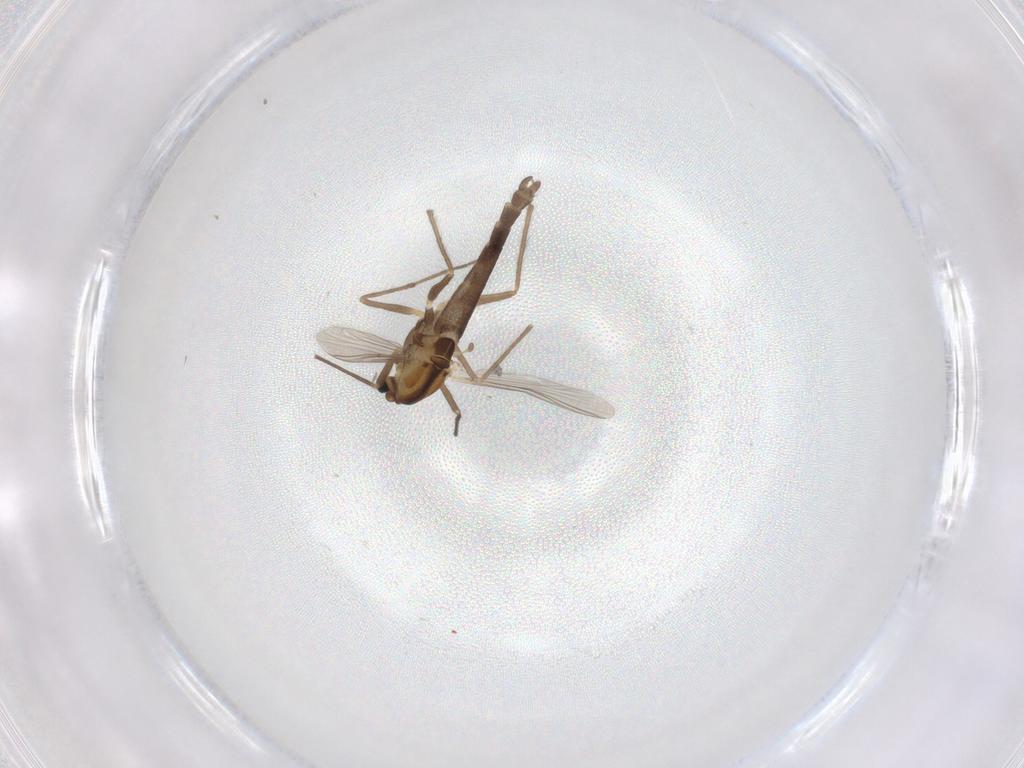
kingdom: Animalia
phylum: Arthropoda
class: Insecta
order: Diptera
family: Chironomidae
